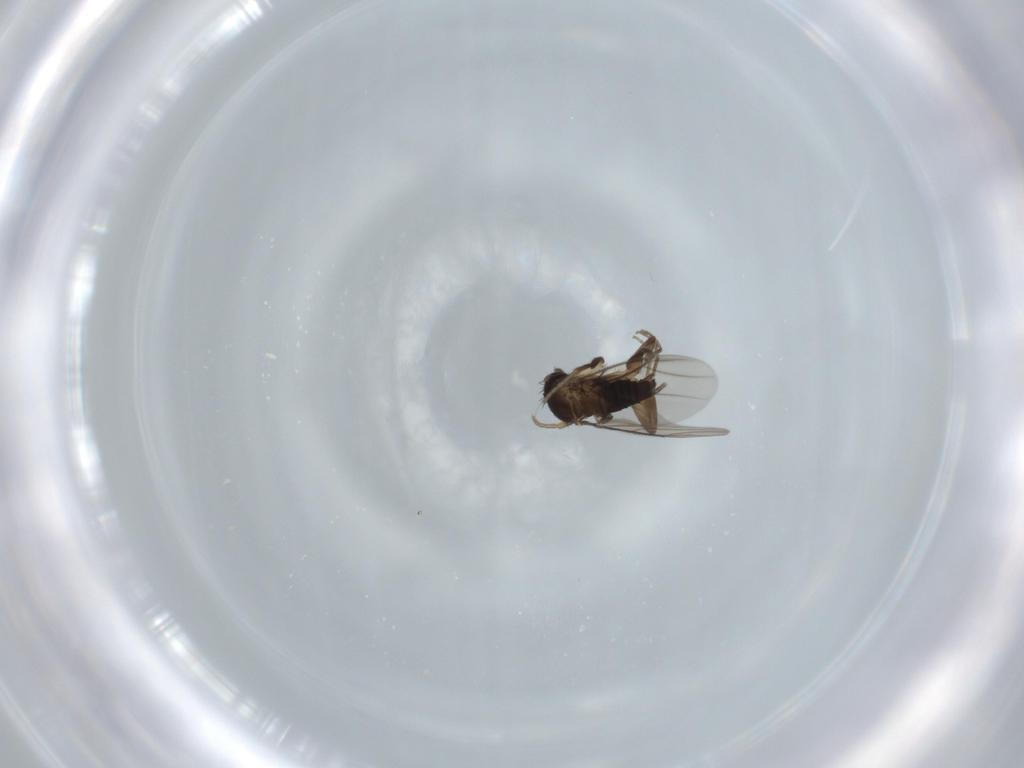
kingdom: Animalia
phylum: Arthropoda
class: Insecta
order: Diptera
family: Phoridae
